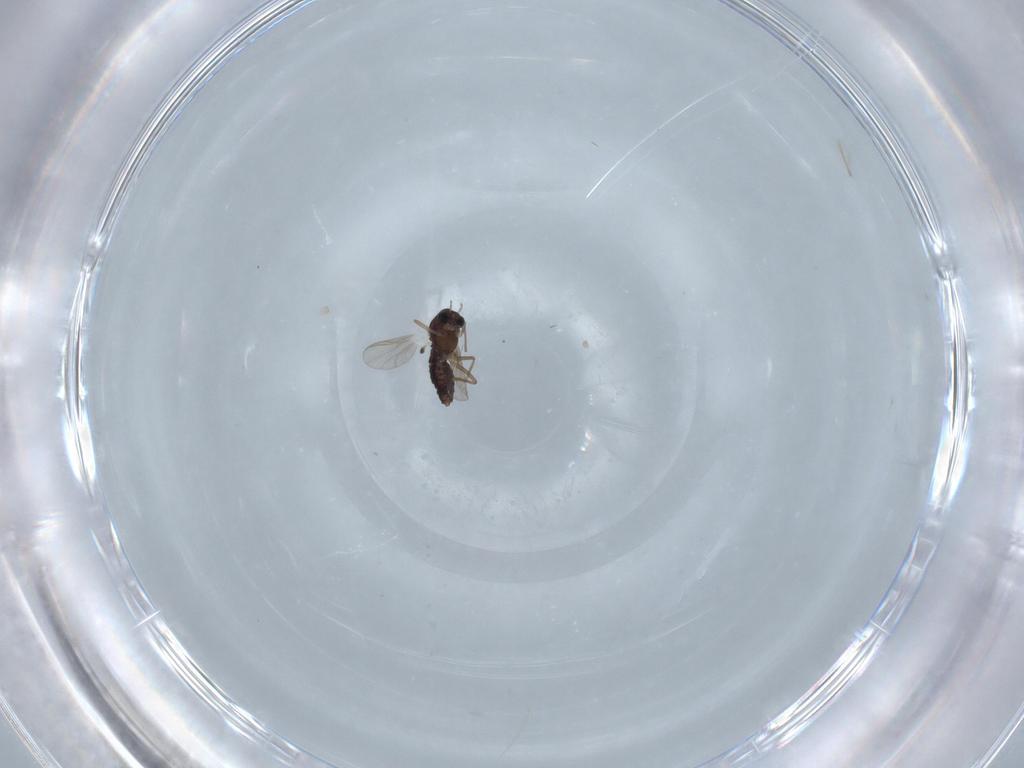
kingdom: Animalia
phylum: Arthropoda
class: Insecta
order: Diptera
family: Chironomidae
